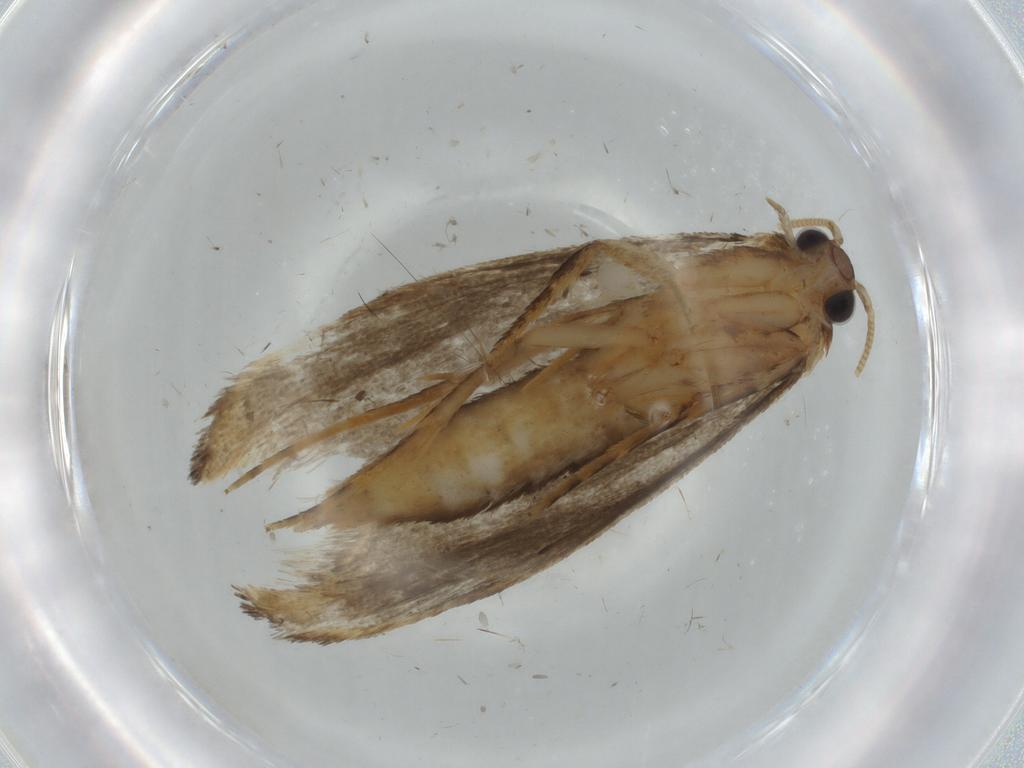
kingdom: Animalia
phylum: Arthropoda
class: Insecta
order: Lepidoptera
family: Tineidae
